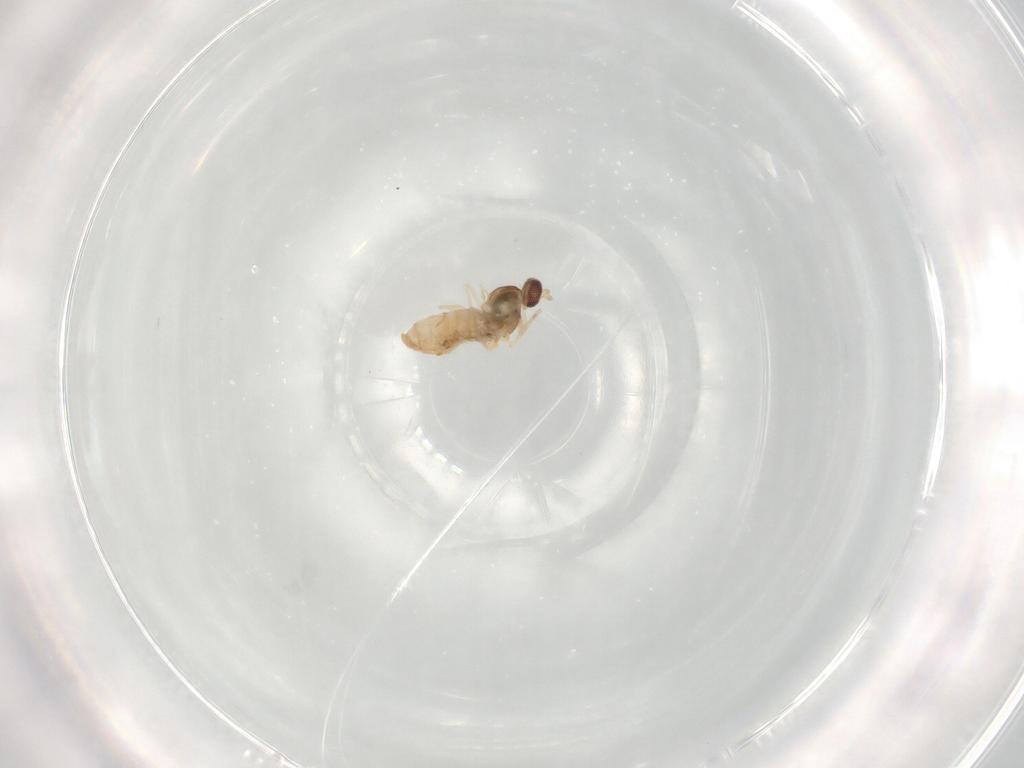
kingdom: Animalia
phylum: Arthropoda
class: Insecta
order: Diptera
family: Cecidomyiidae
